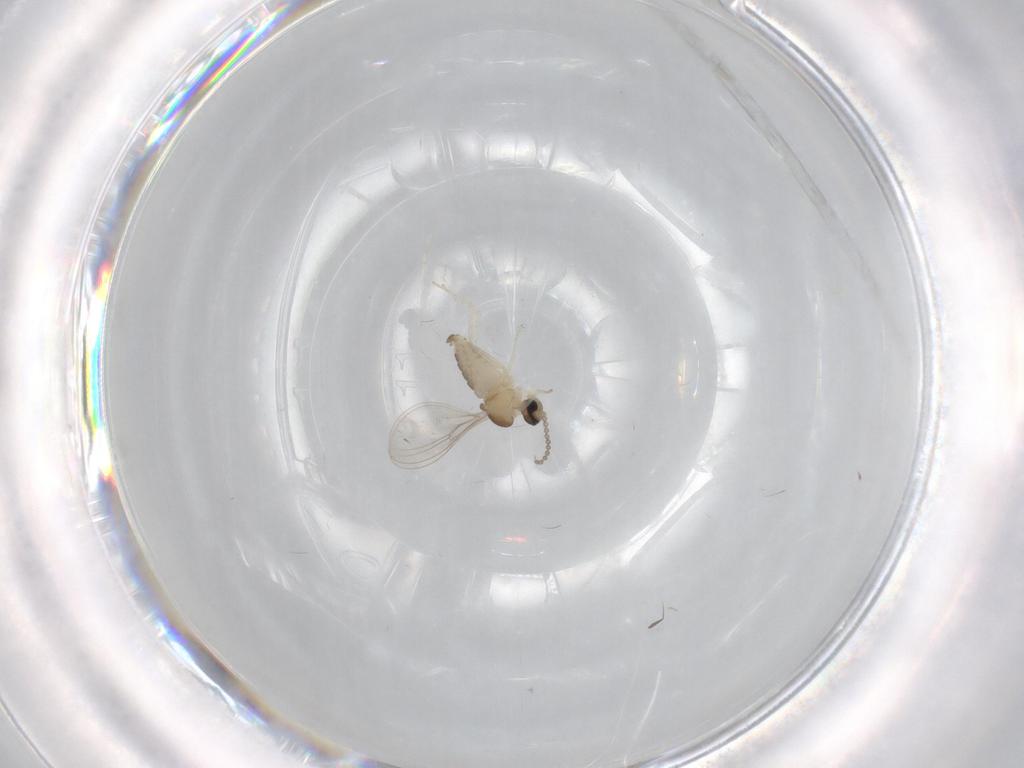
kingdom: Animalia
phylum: Arthropoda
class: Insecta
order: Diptera
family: Cecidomyiidae
